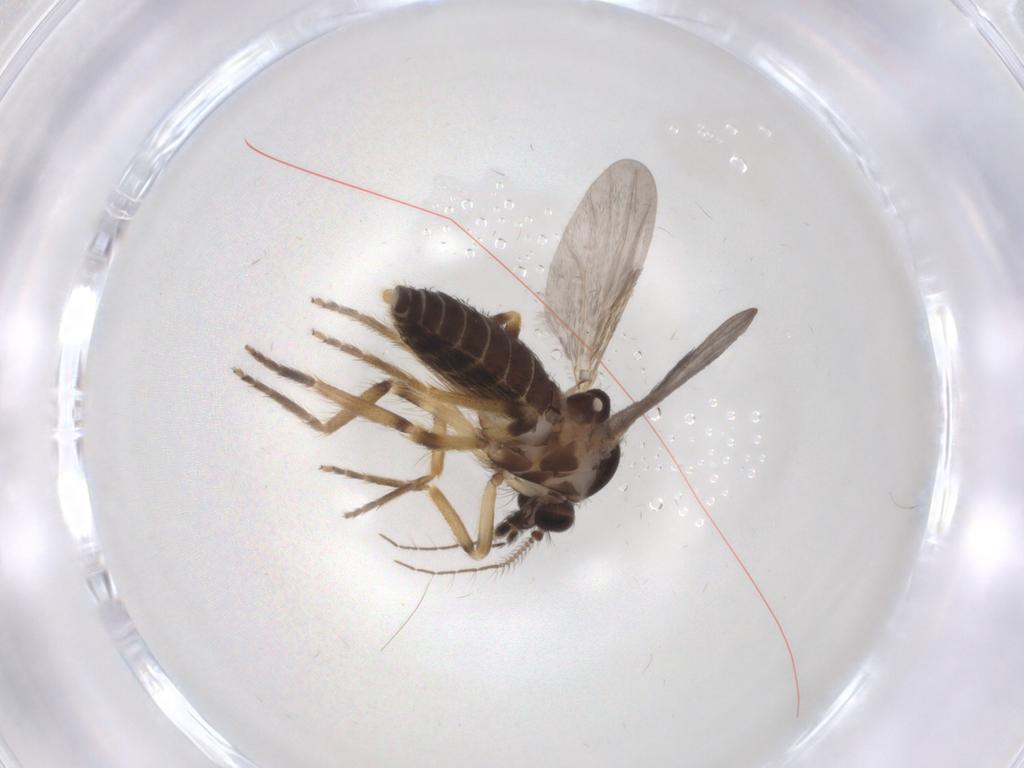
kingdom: Animalia
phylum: Arthropoda
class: Insecta
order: Diptera
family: Ceratopogonidae
